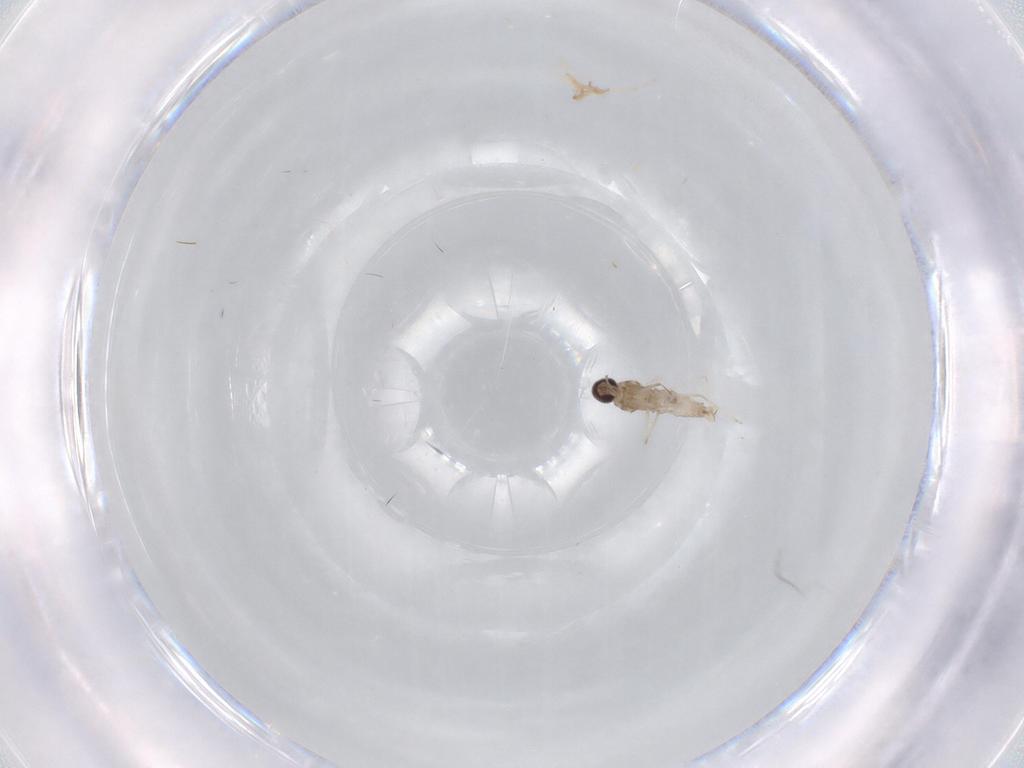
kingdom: Animalia
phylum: Arthropoda
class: Insecta
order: Diptera
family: Cecidomyiidae
